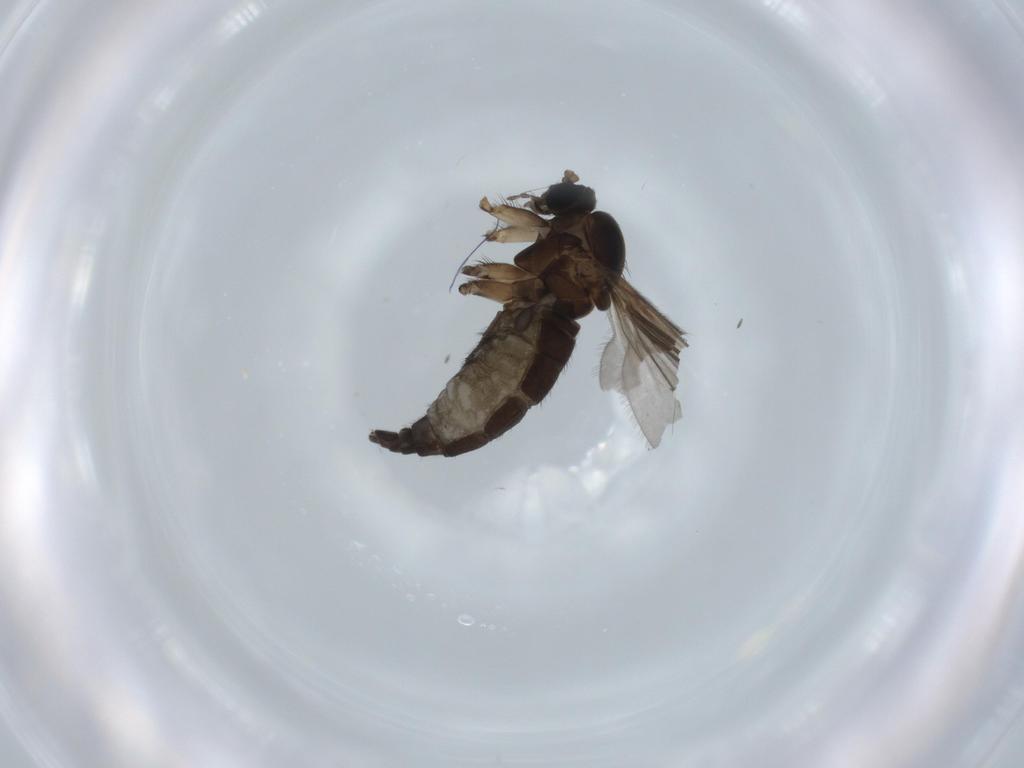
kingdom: Animalia
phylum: Arthropoda
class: Insecta
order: Diptera
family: Sciaridae
